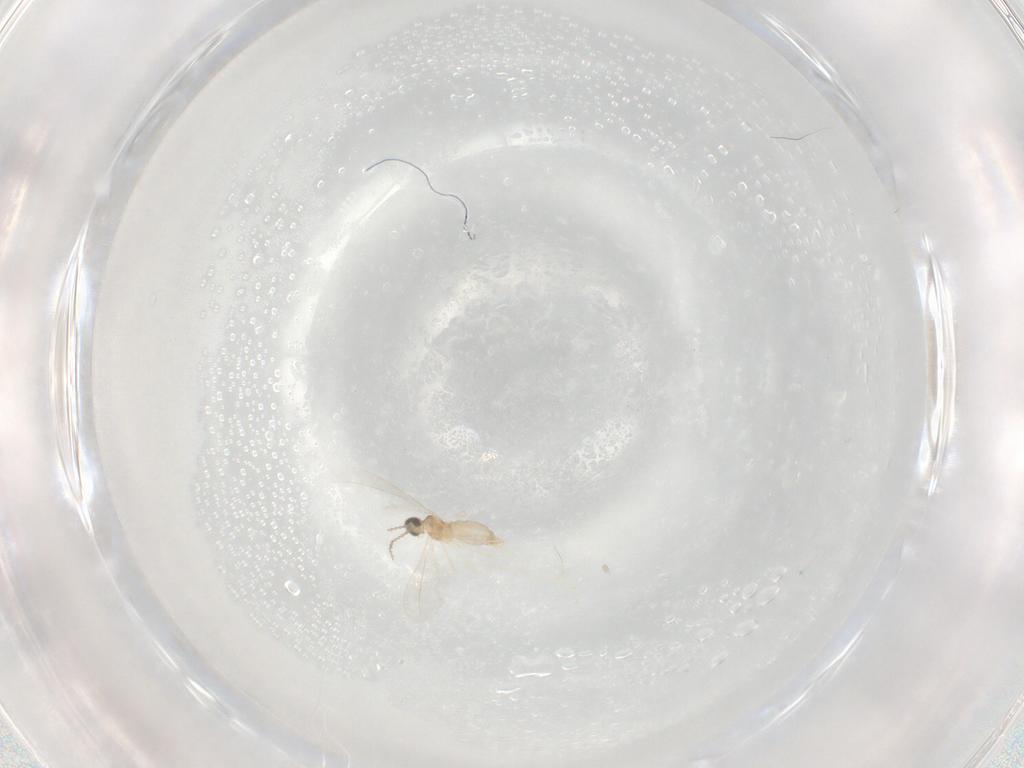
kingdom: Animalia
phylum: Arthropoda
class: Insecta
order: Diptera
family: Cecidomyiidae
